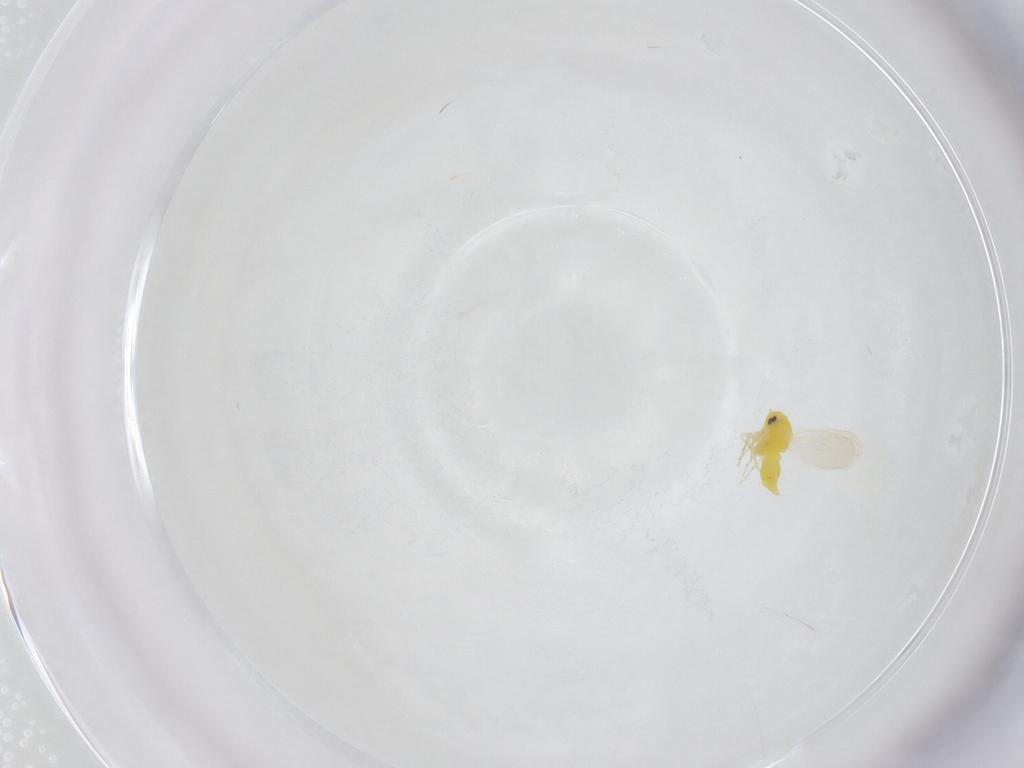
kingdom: Animalia
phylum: Arthropoda
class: Insecta
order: Hemiptera
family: Aleyrodidae
